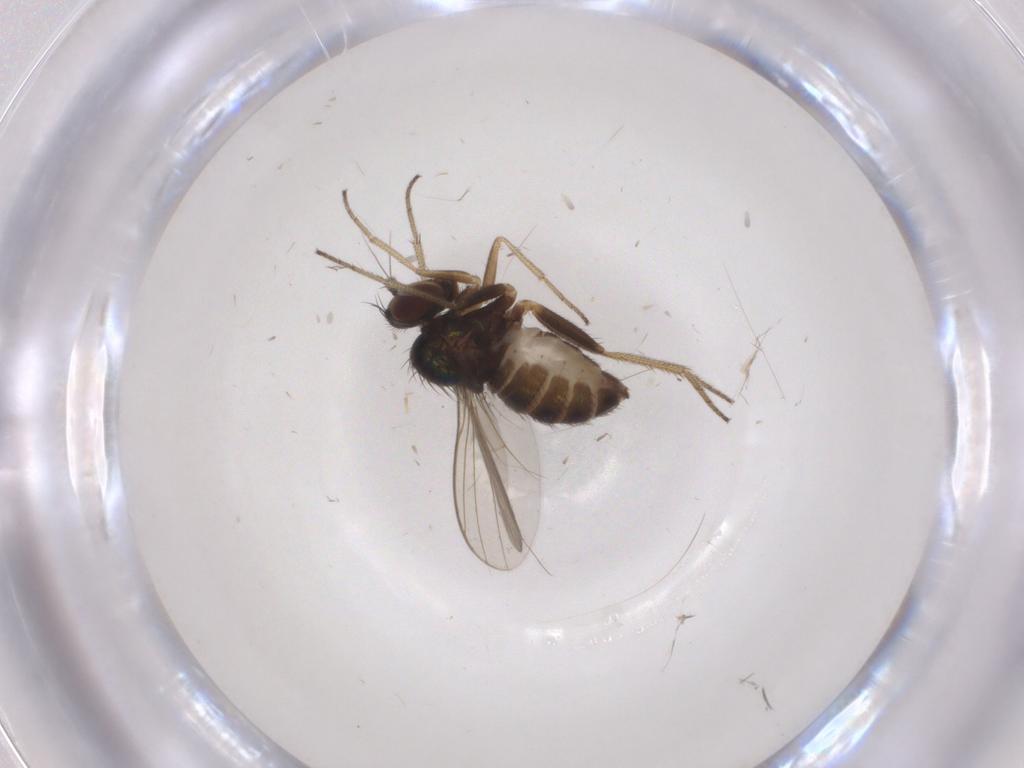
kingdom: Animalia
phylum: Arthropoda
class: Insecta
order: Diptera
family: Dolichopodidae
